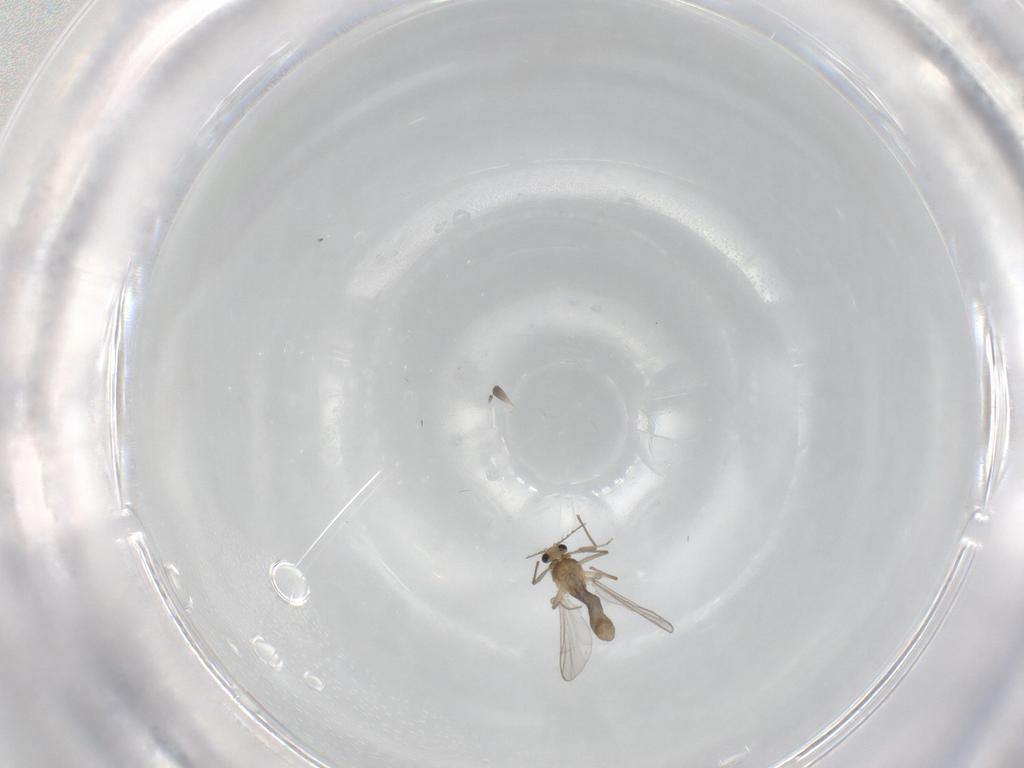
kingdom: Animalia
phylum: Arthropoda
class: Insecta
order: Diptera
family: Chironomidae
